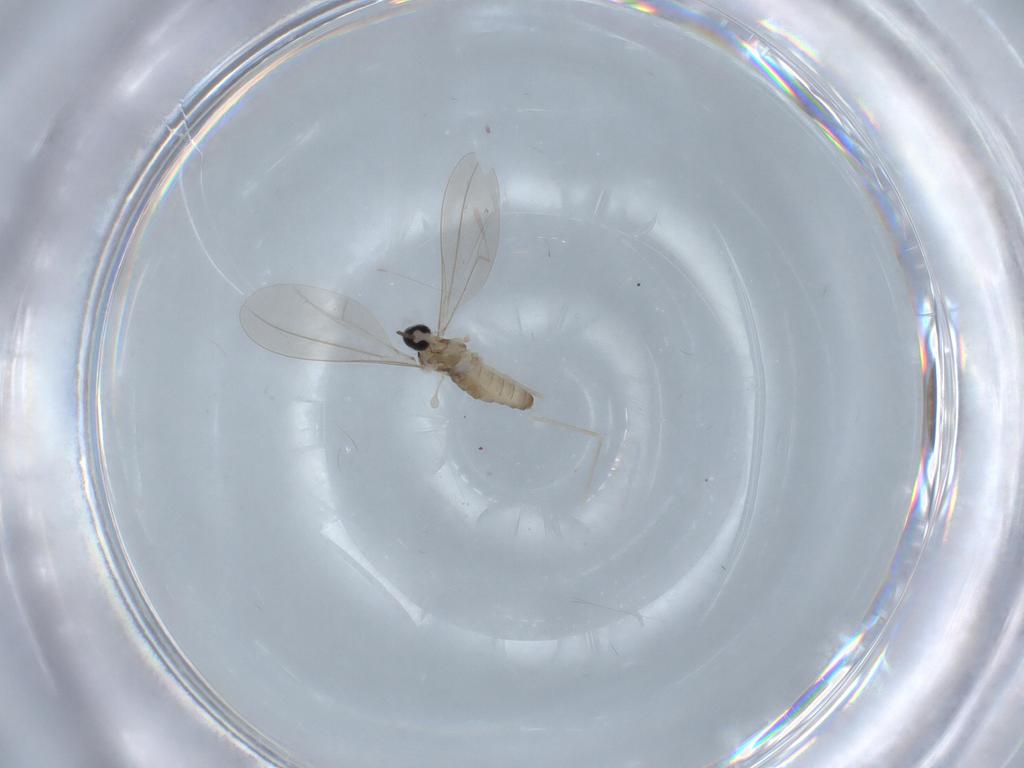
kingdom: Animalia
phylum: Arthropoda
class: Insecta
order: Diptera
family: Cecidomyiidae
